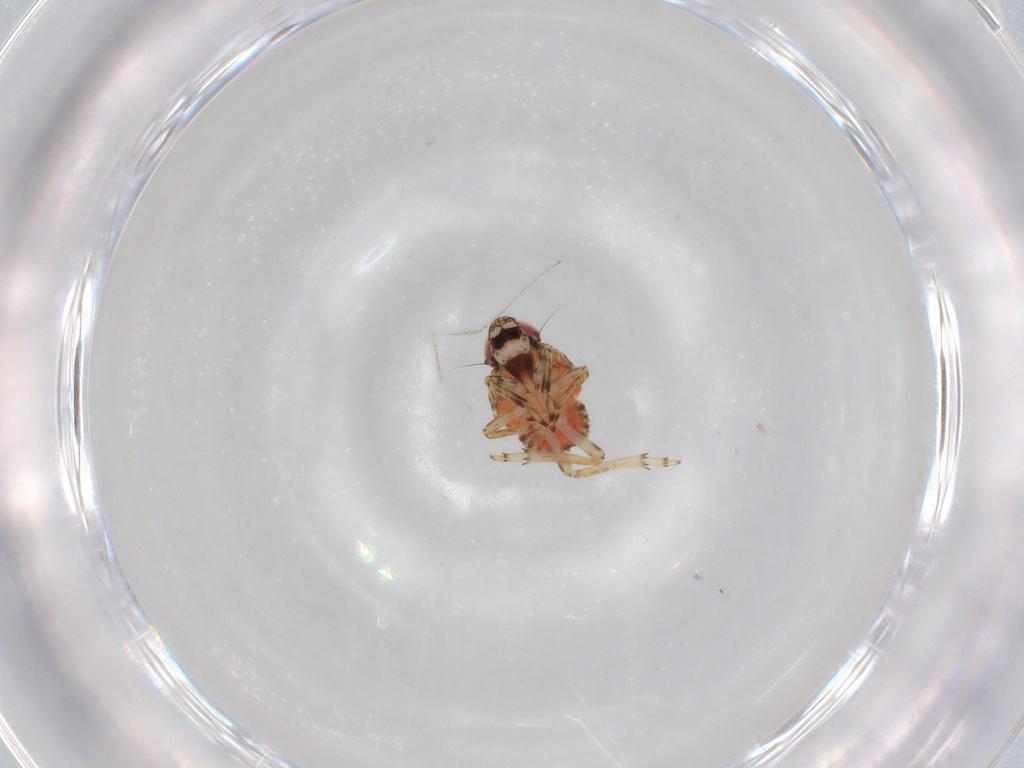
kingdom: Animalia
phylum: Arthropoda
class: Insecta
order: Hemiptera
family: Issidae
